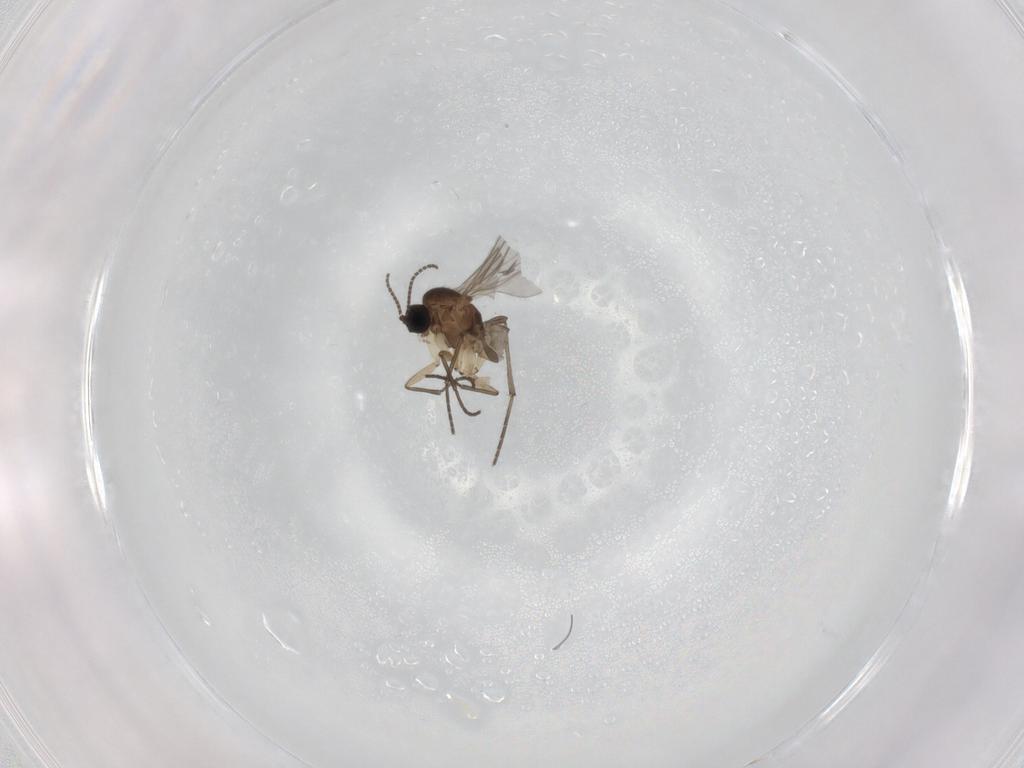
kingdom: Animalia
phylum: Arthropoda
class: Insecta
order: Diptera
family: Sciaridae
